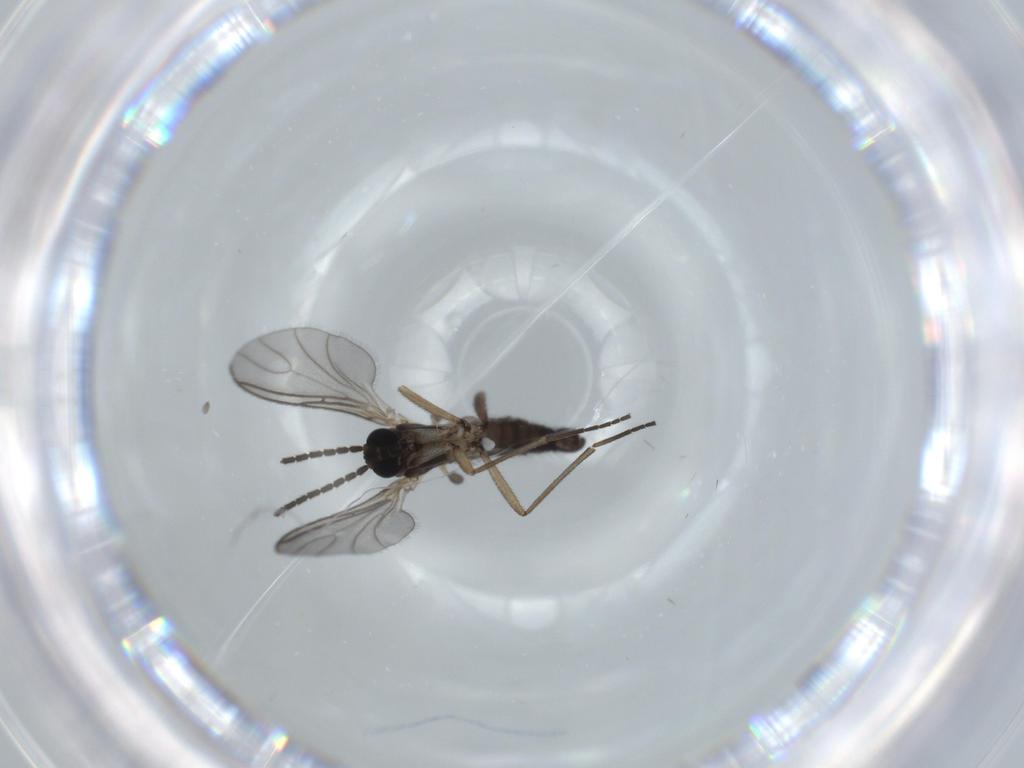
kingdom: Animalia
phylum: Arthropoda
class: Insecta
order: Diptera
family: Sciaridae
